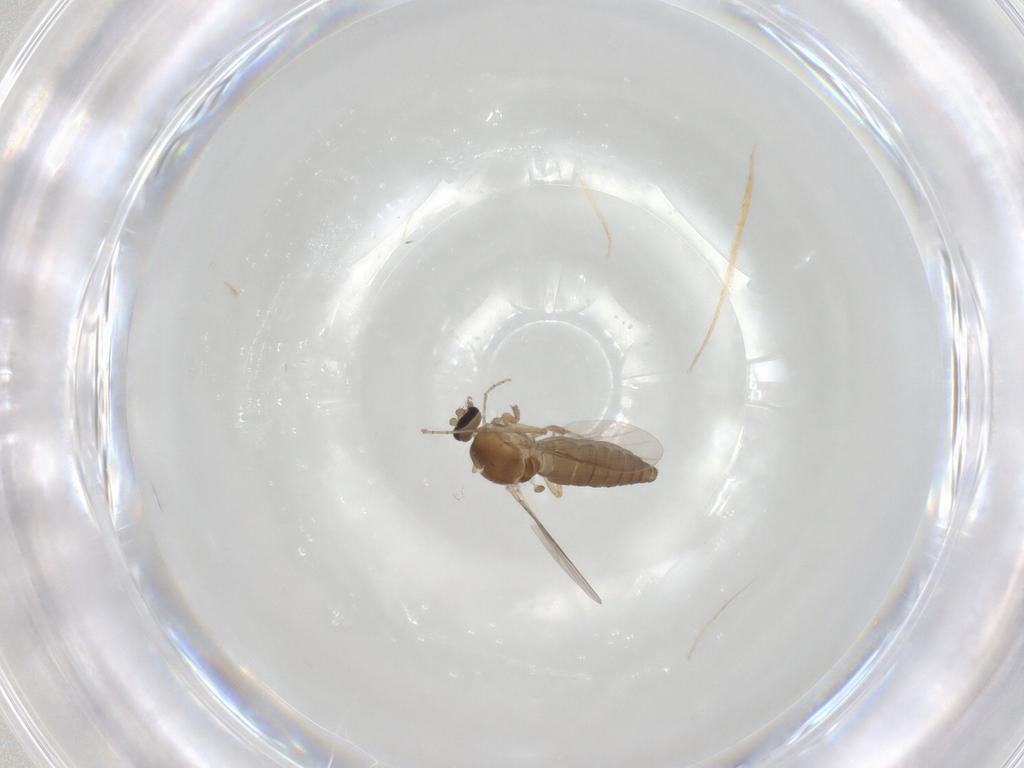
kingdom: Animalia
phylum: Arthropoda
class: Insecta
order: Diptera
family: Ceratopogonidae
